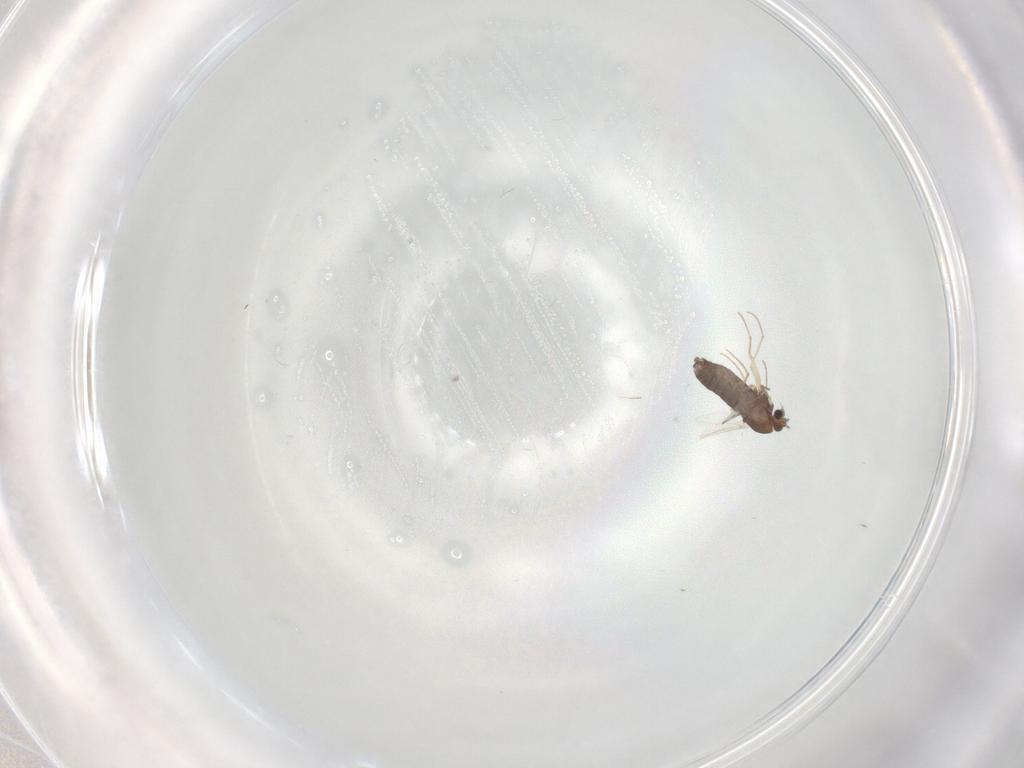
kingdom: Animalia
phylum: Arthropoda
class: Insecta
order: Diptera
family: Chironomidae
